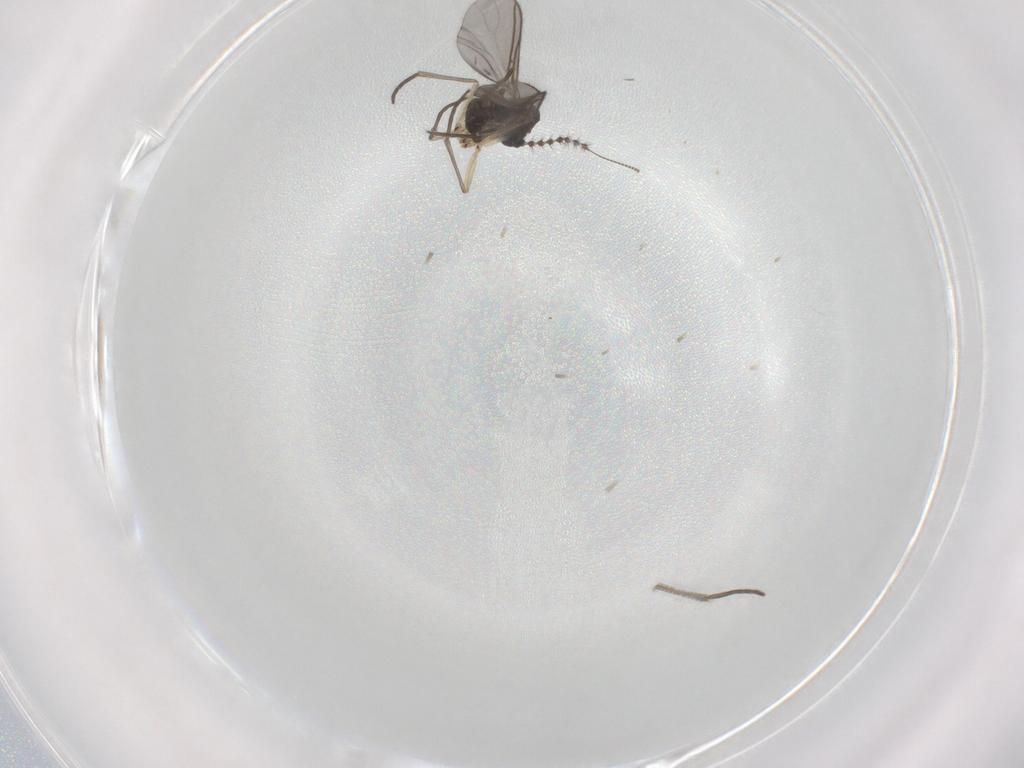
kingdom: Animalia
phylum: Arthropoda
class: Insecta
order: Diptera
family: Sciaridae
